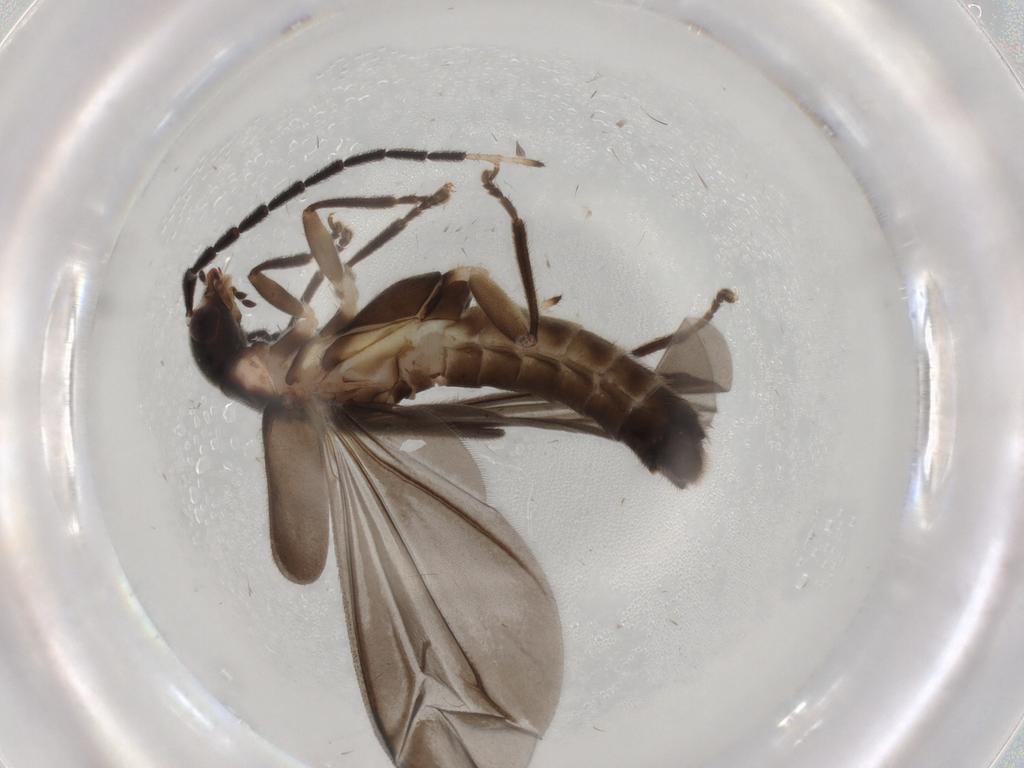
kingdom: Animalia
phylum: Arthropoda
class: Insecta
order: Coleoptera
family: Cantharidae
